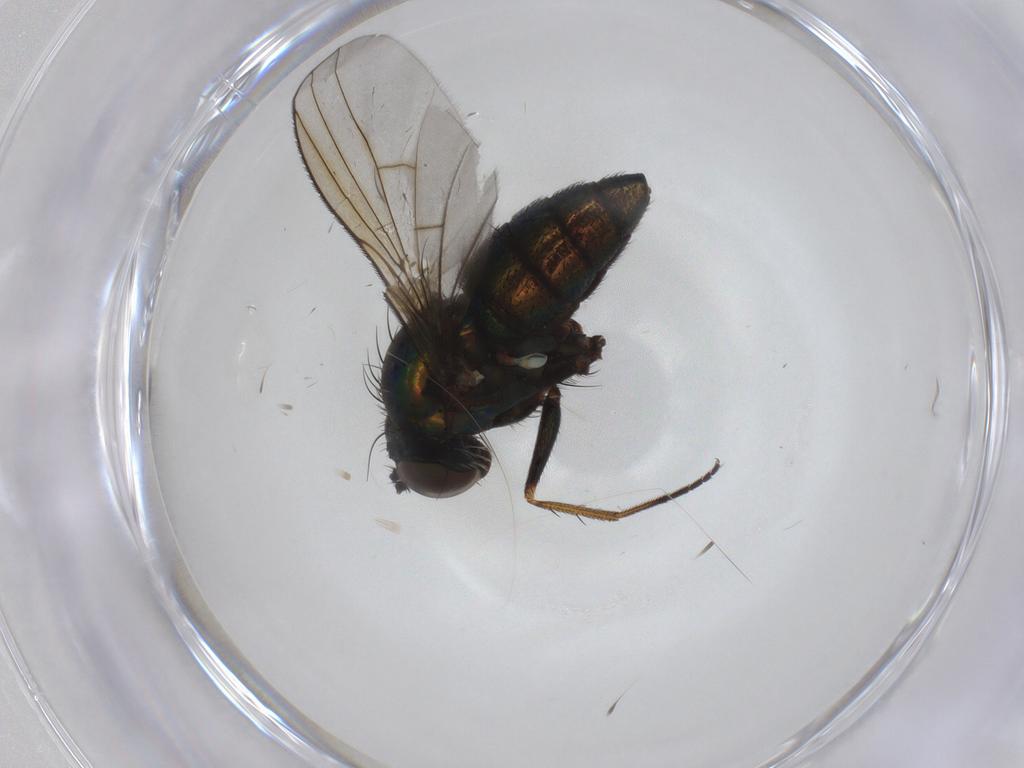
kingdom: Animalia
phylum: Arthropoda
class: Insecta
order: Diptera
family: Dolichopodidae
